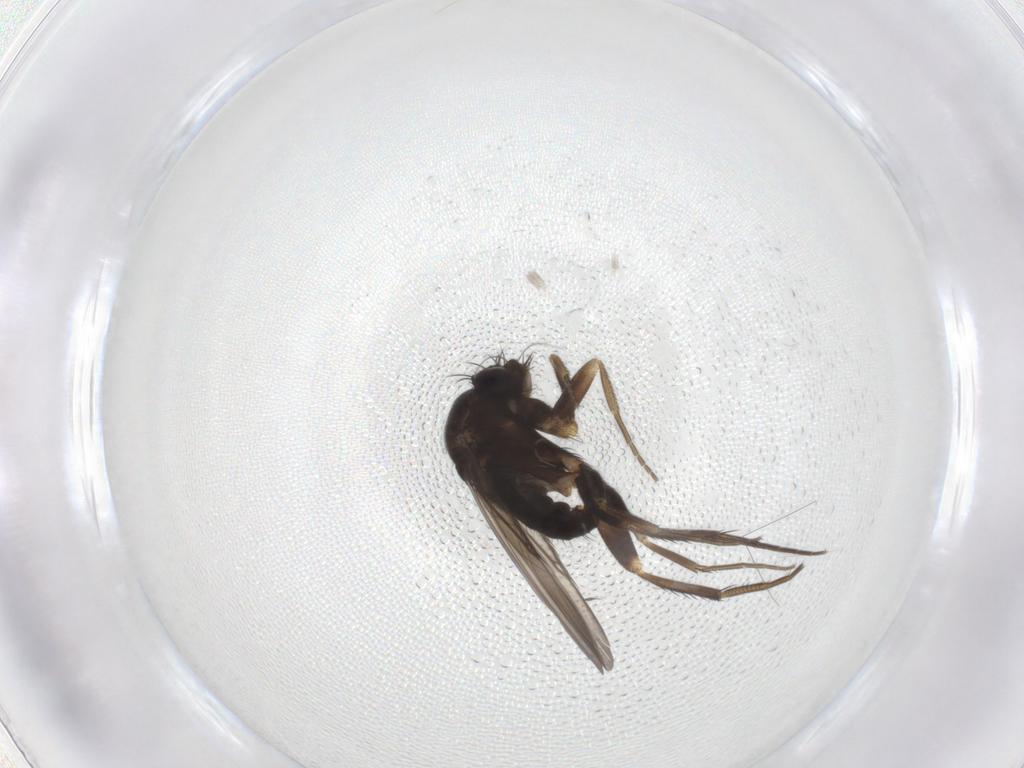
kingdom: Animalia
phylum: Arthropoda
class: Insecta
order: Diptera
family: Phoridae
